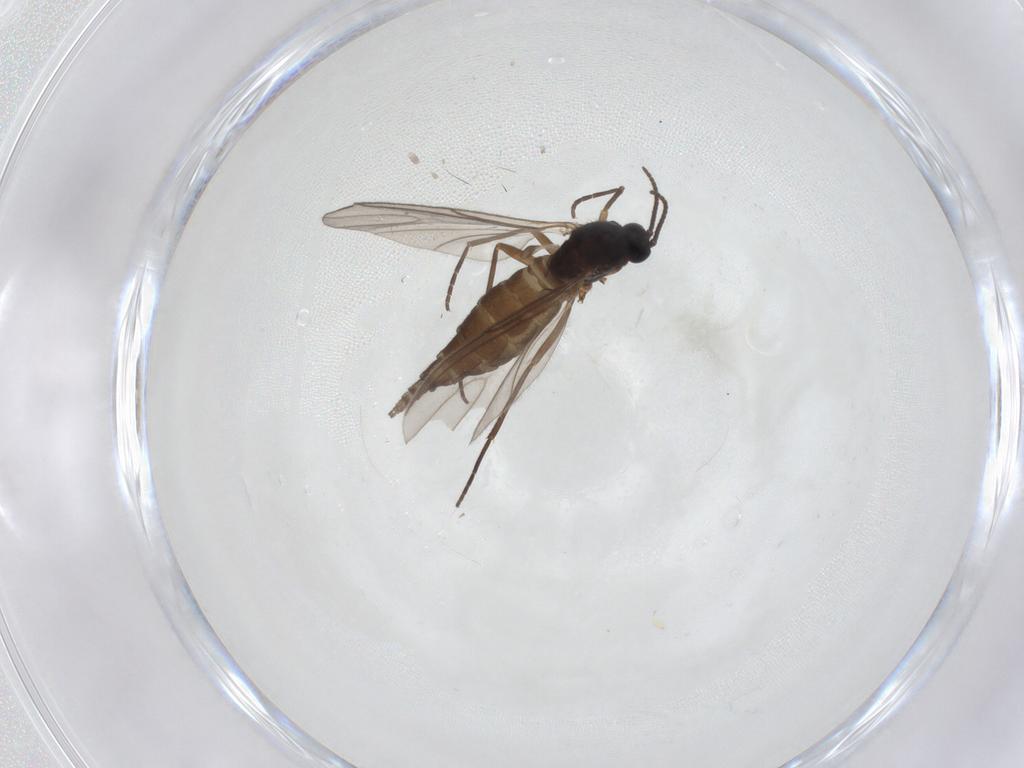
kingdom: Animalia
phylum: Arthropoda
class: Insecta
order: Diptera
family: Sciaridae
